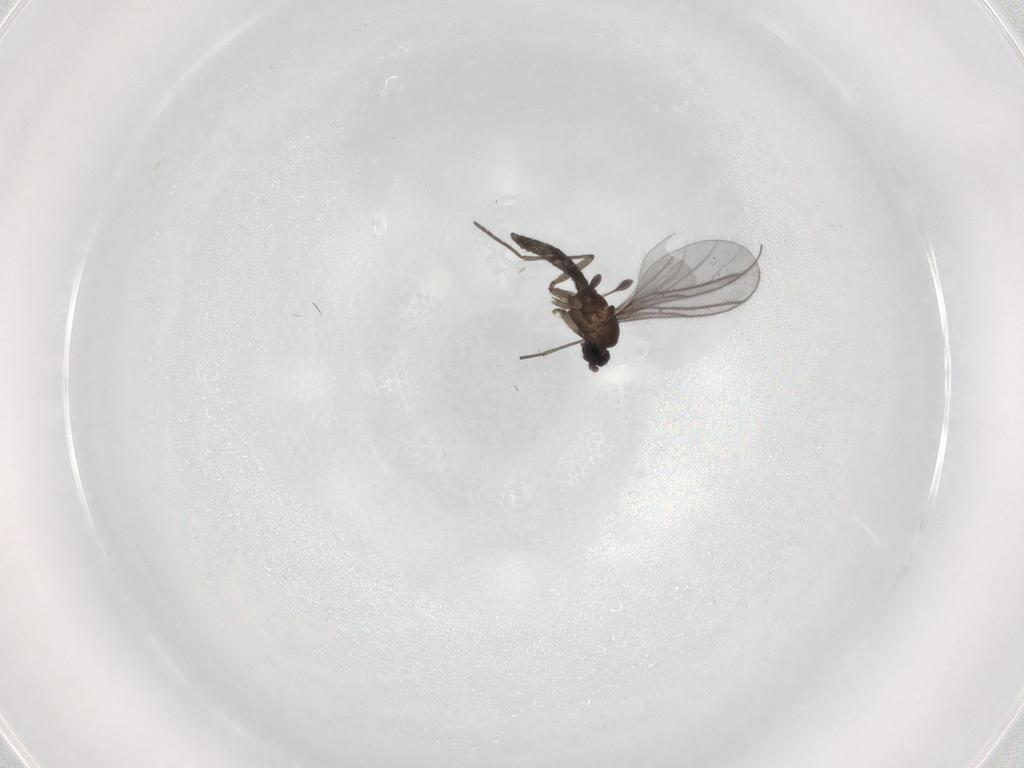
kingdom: Animalia
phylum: Arthropoda
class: Insecta
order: Diptera
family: Sciaridae
